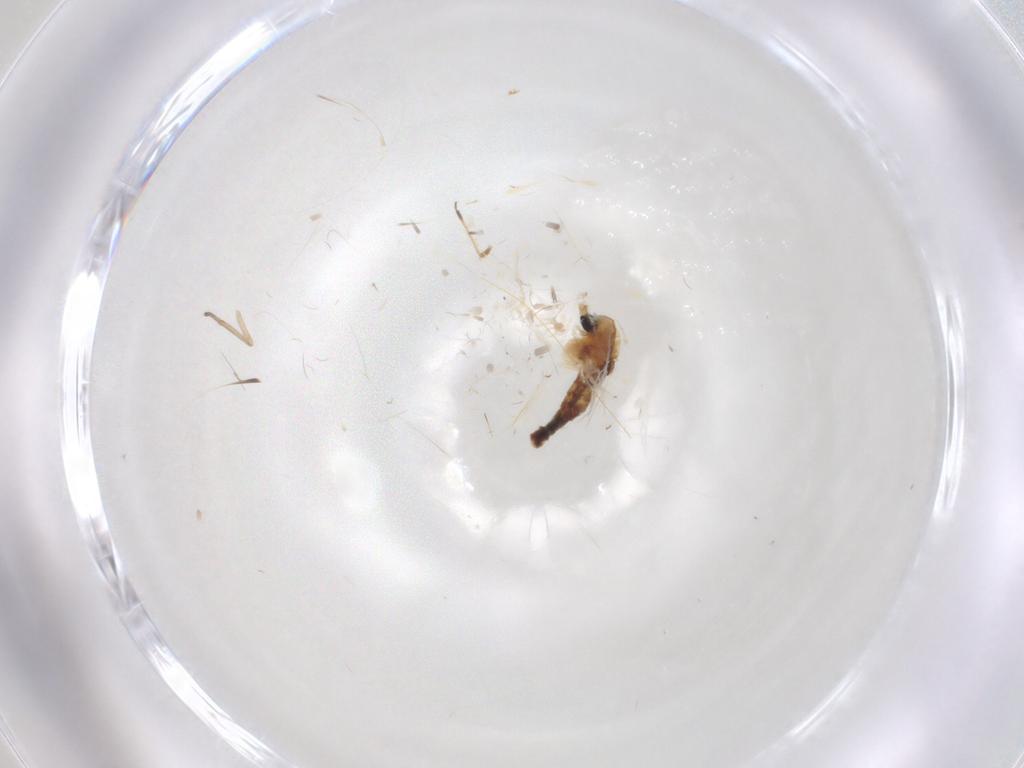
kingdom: Animalia
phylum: Arthropoda
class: Insecta
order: Diptera
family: Chironomidae
